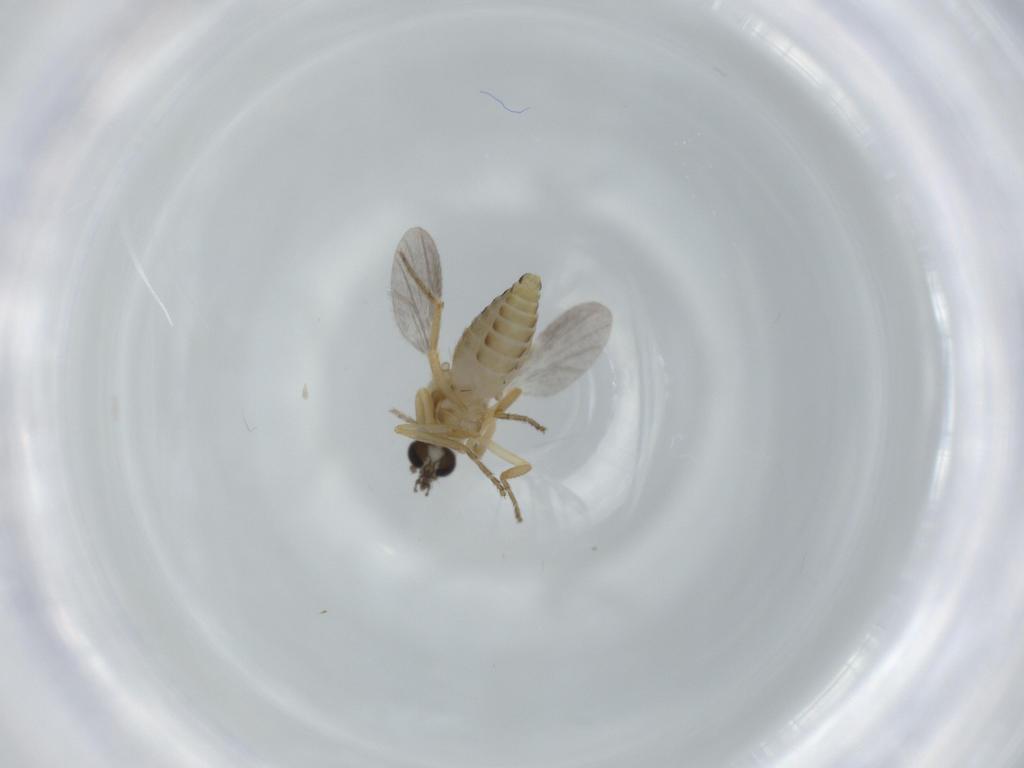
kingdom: Animalia
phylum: Arthropoda
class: Insecta
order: Diptera
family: Ceratopogonidae
